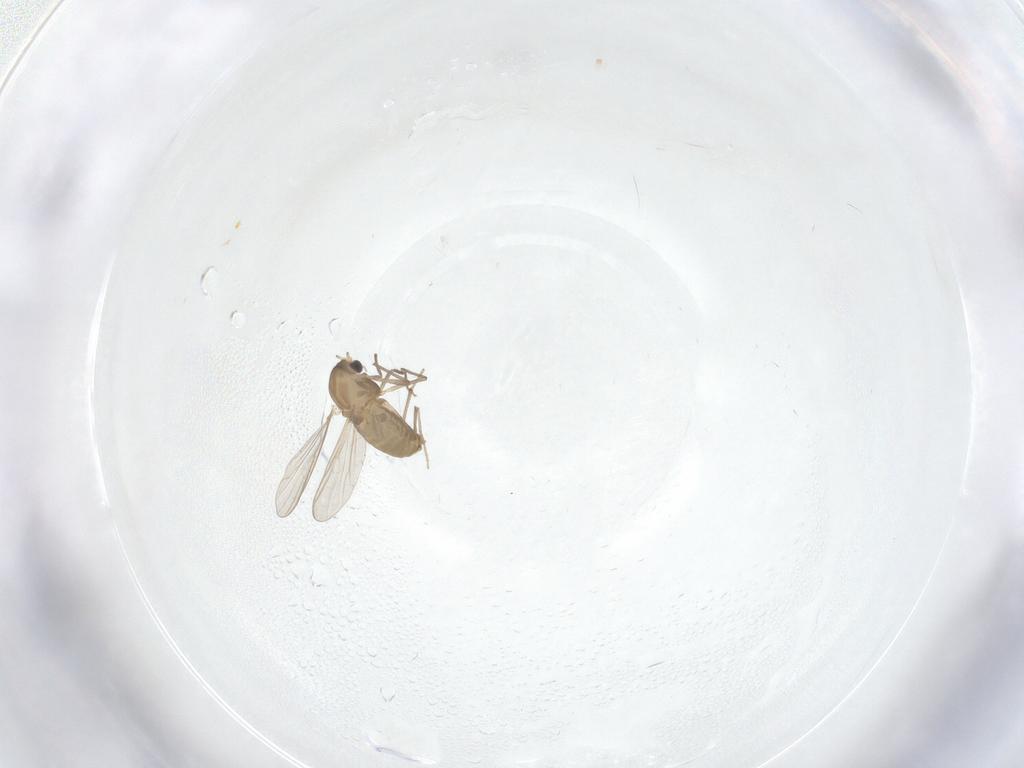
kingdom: Animalia
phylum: Arthropoda
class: Insecta
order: Diptera
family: Chironomidae
